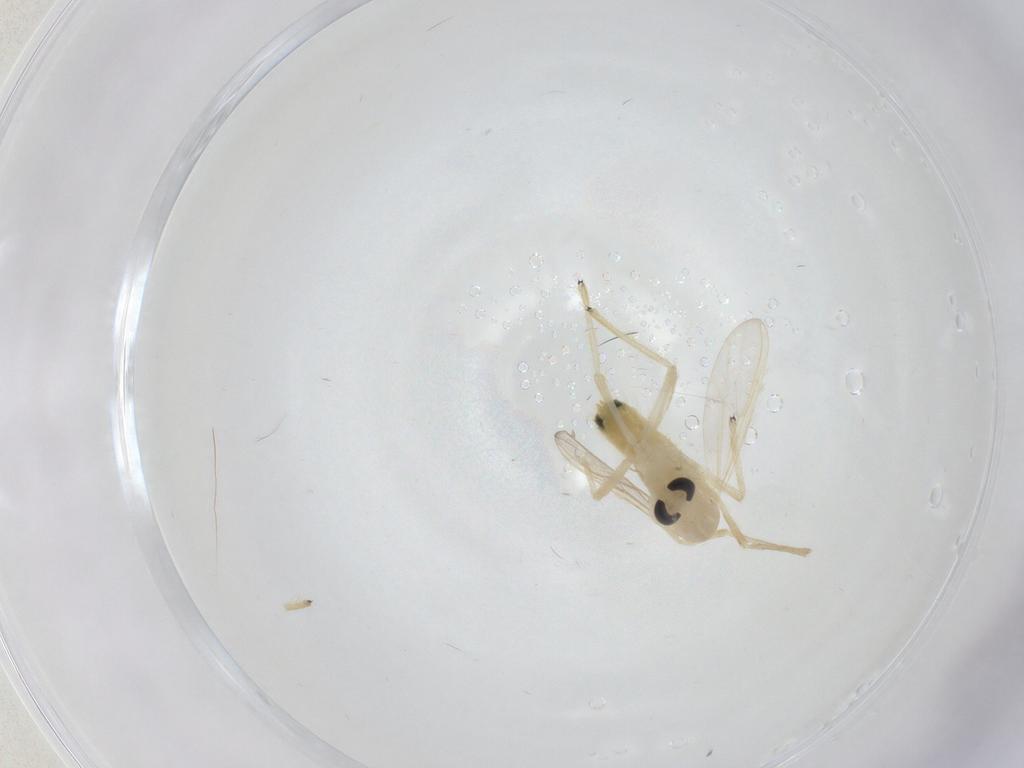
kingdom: Animalia
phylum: Arthropoda
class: Insecta
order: Diptera
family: Chironomidae
